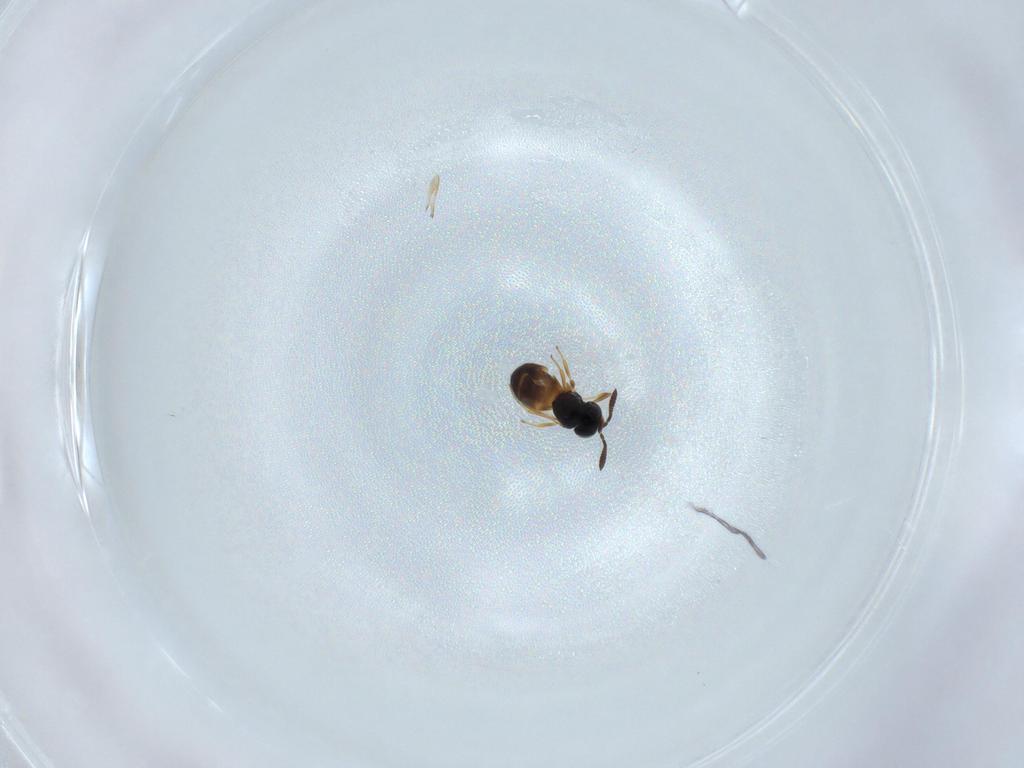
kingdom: Animalia
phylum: Arthropoda
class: Insecta
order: Hymenoptera
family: Scelionidae
